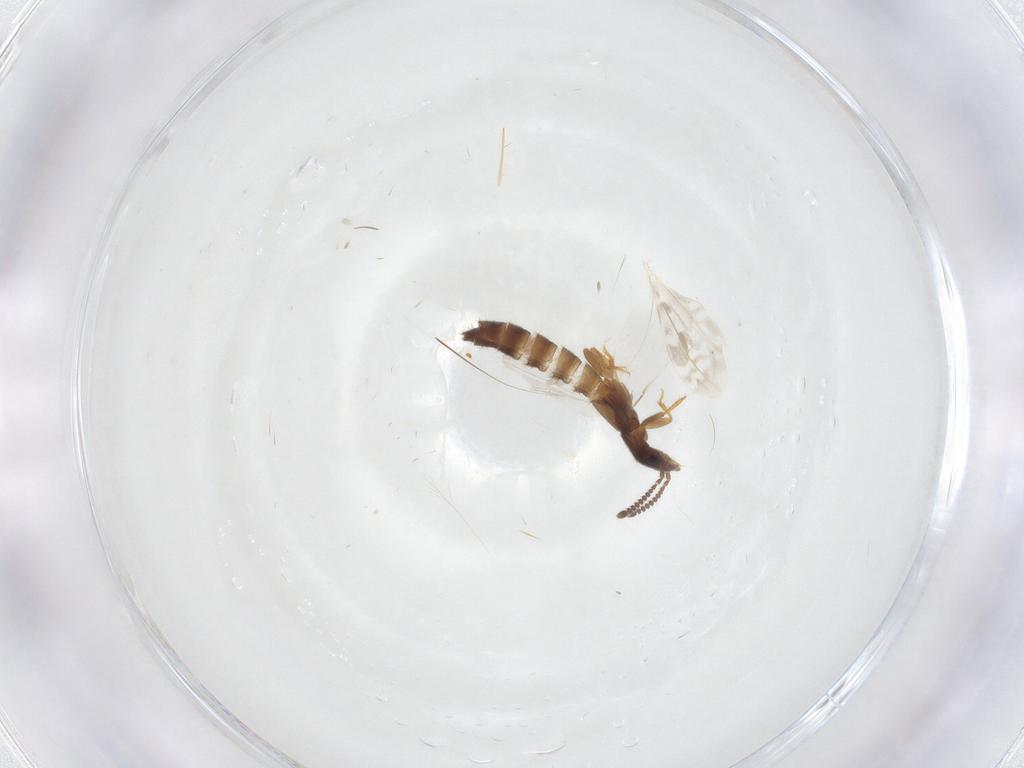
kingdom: Animalia
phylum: Arthropoda
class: Insecta
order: Coleoptera
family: Staphylinidae
